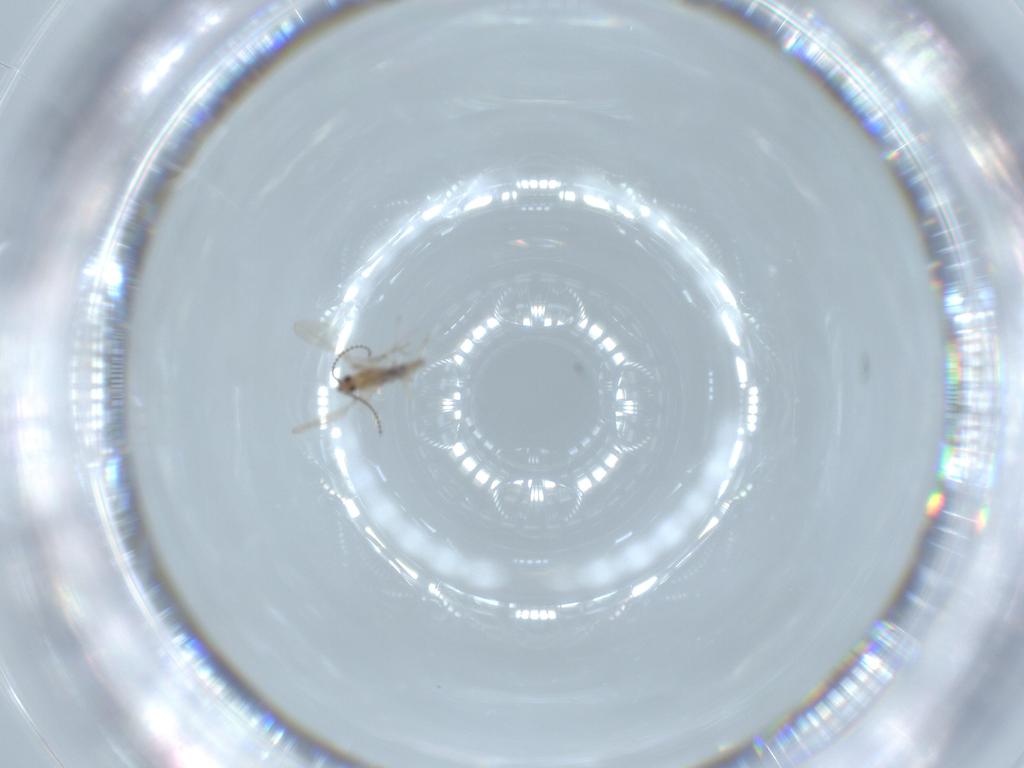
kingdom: Animalia
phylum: Arthropoda
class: Insecta
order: Diptera
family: Cecidomyiidae
